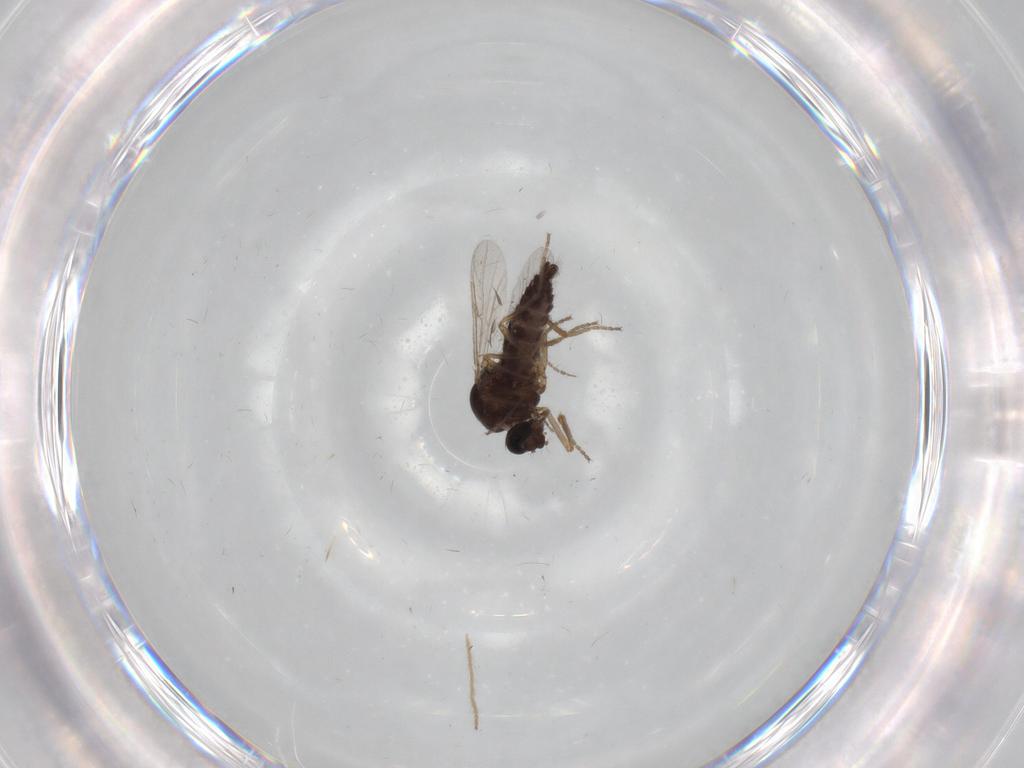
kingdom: Animalia
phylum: Arthropoda
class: Insecta
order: Diptera
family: Ceratopogonidae
